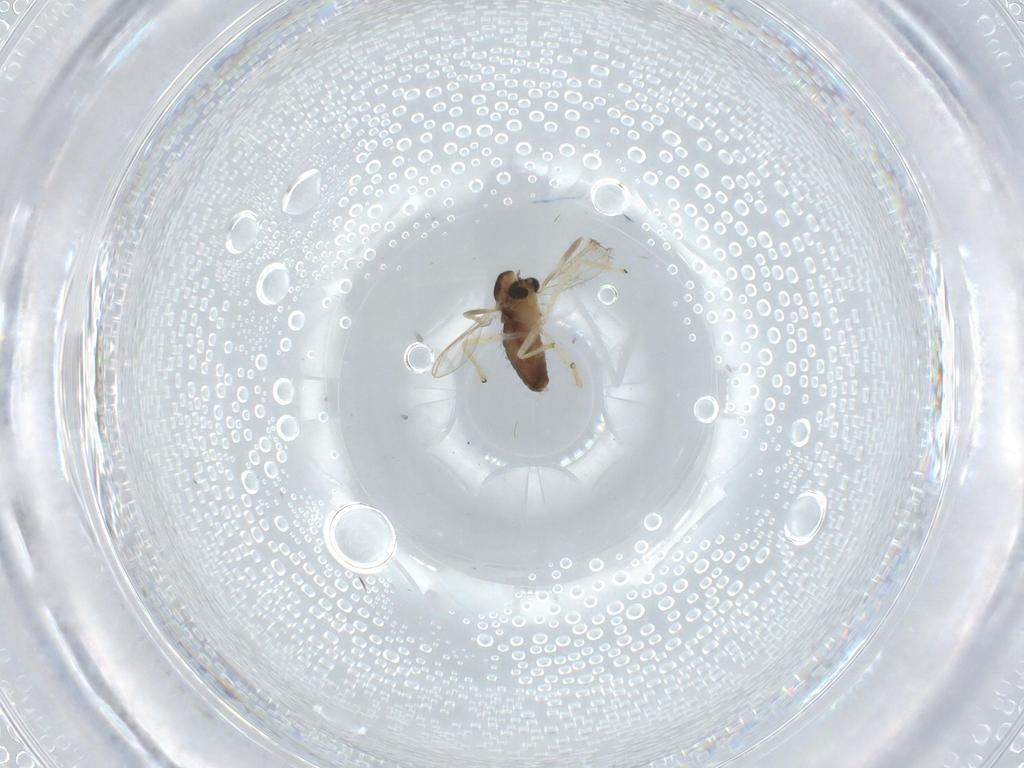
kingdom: Animalia
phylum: Arthropoda
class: Insecta
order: Diptera
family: Chironomidae
